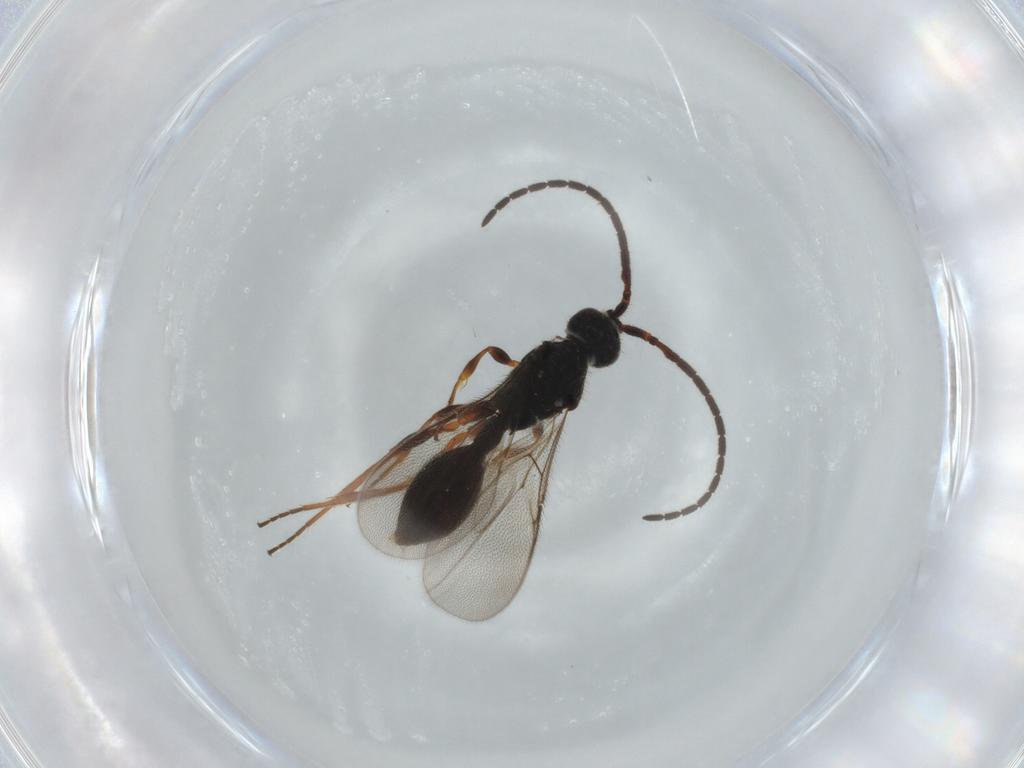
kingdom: Animalia
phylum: Arthropoda
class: Insecta
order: Hymenoptera
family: Diapriidae
